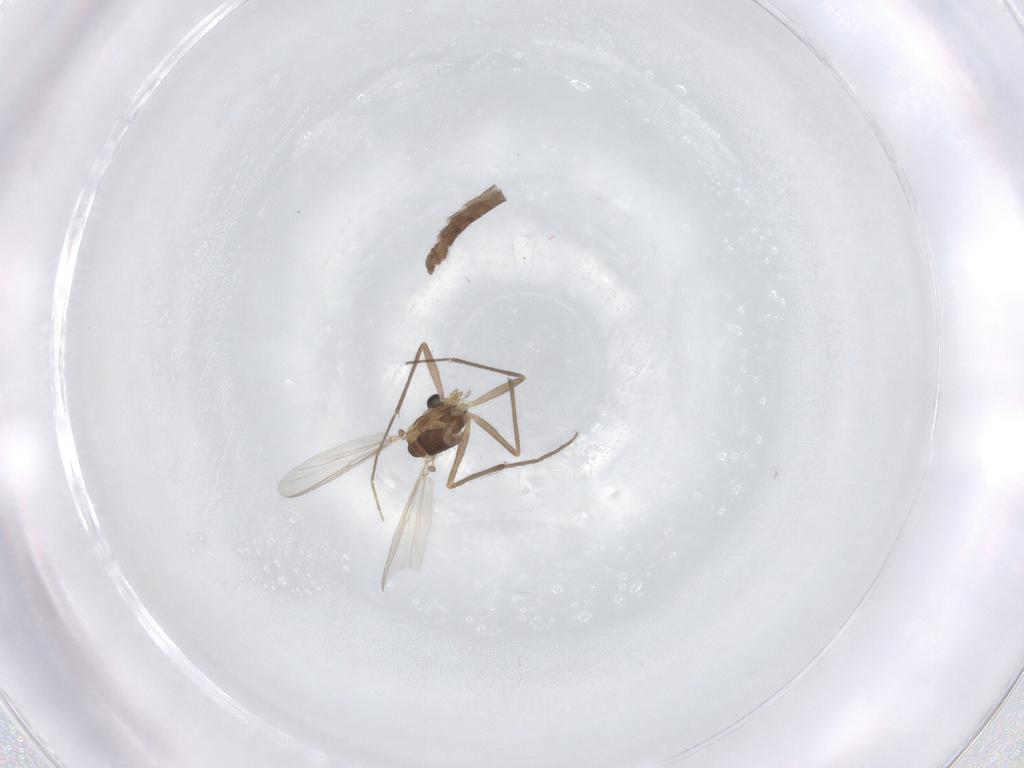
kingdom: Animalia
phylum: Arthropoda
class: Insecta
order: Diptera
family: Chironomidae
